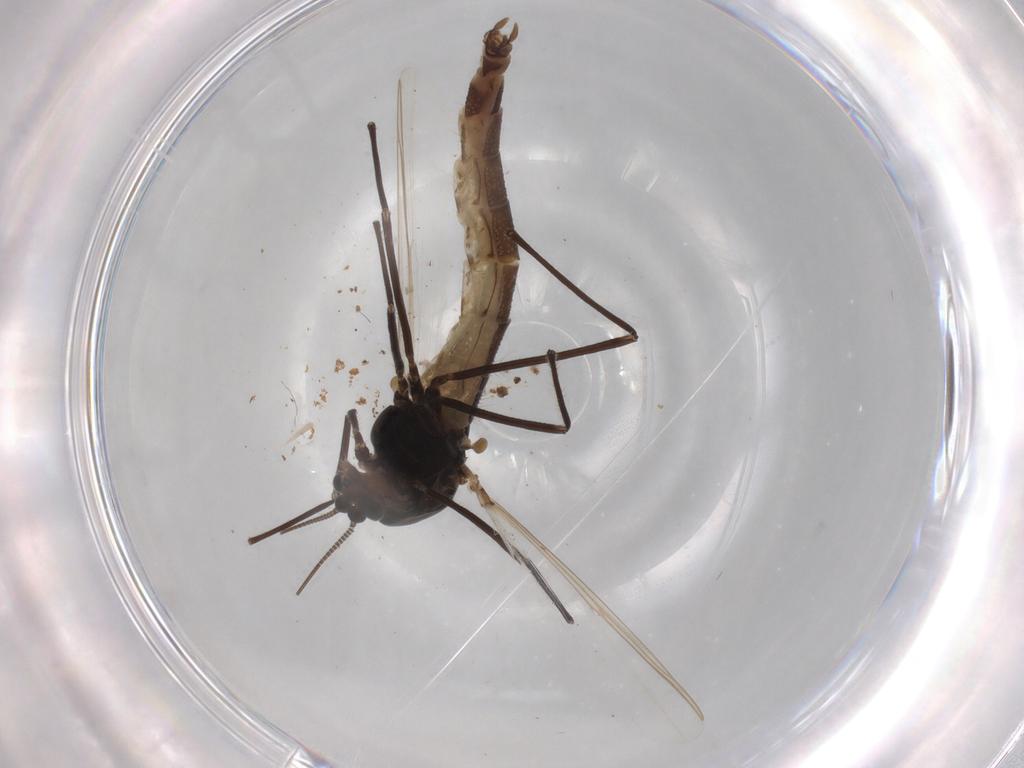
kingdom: Animalia
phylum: Arthropoda
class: Insecta
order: Diptera
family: Chironomidae
